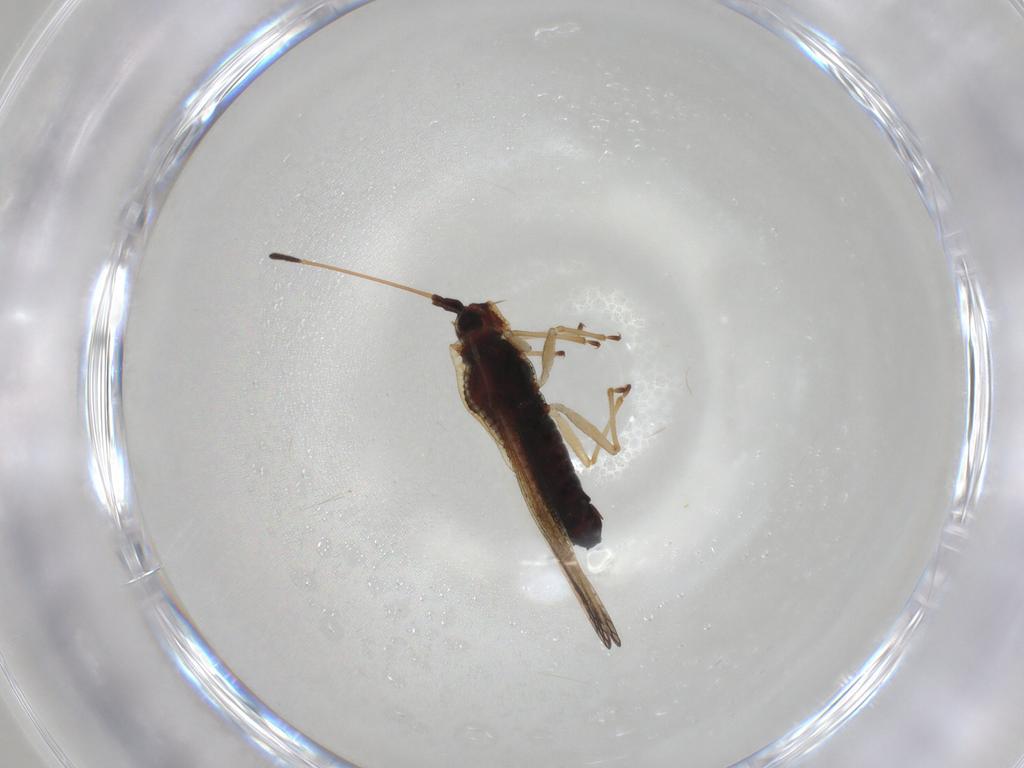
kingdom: Animalia
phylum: Arthropoda
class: Insecta
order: Hemiptera
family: Tingidae
